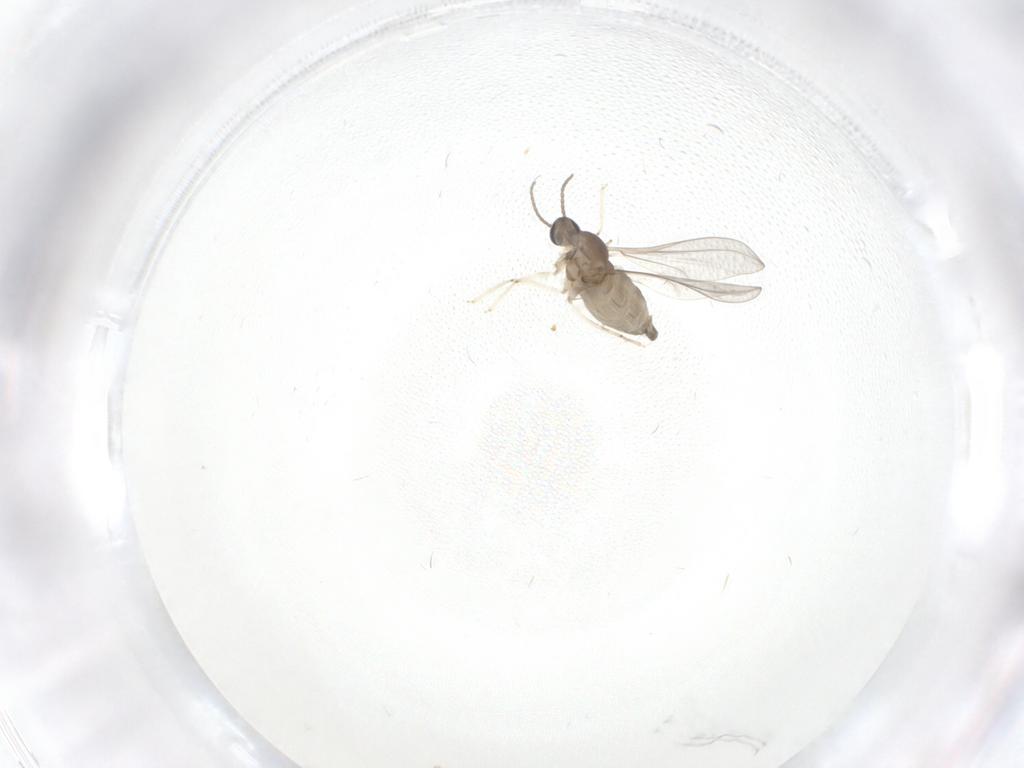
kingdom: Animalia
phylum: Arthropoda
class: Insecta
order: Diptera
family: Cecidomyiidae
